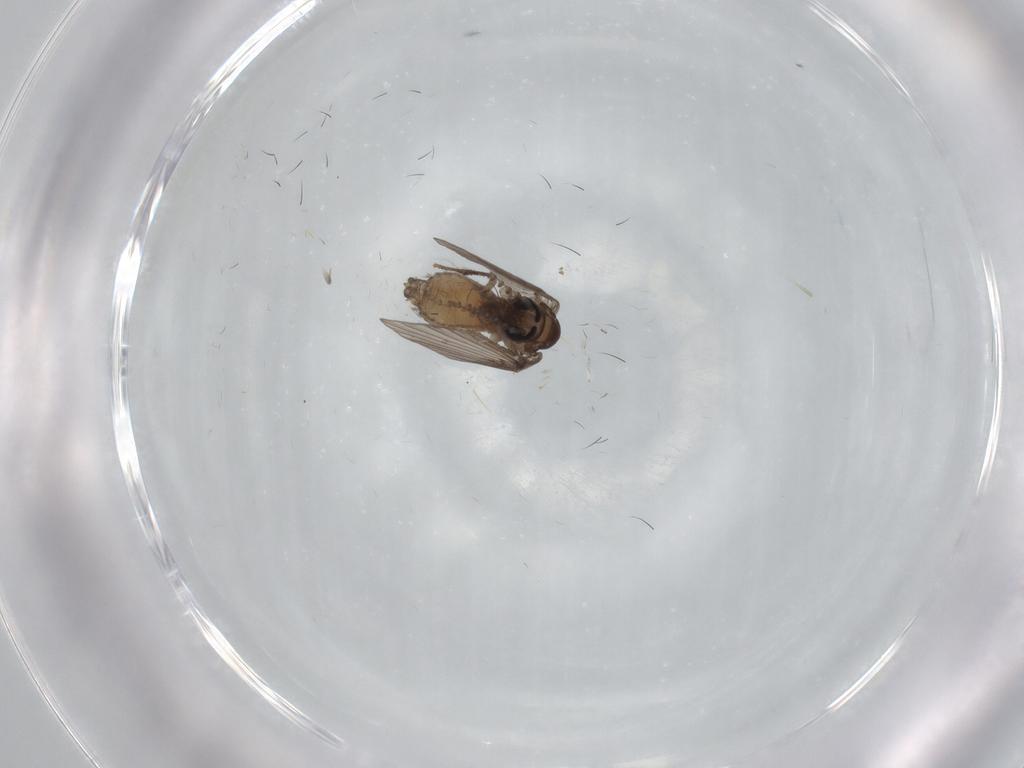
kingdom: Animalia
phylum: Arthropoda
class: Insecta
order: Diptera
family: Psychodidae
